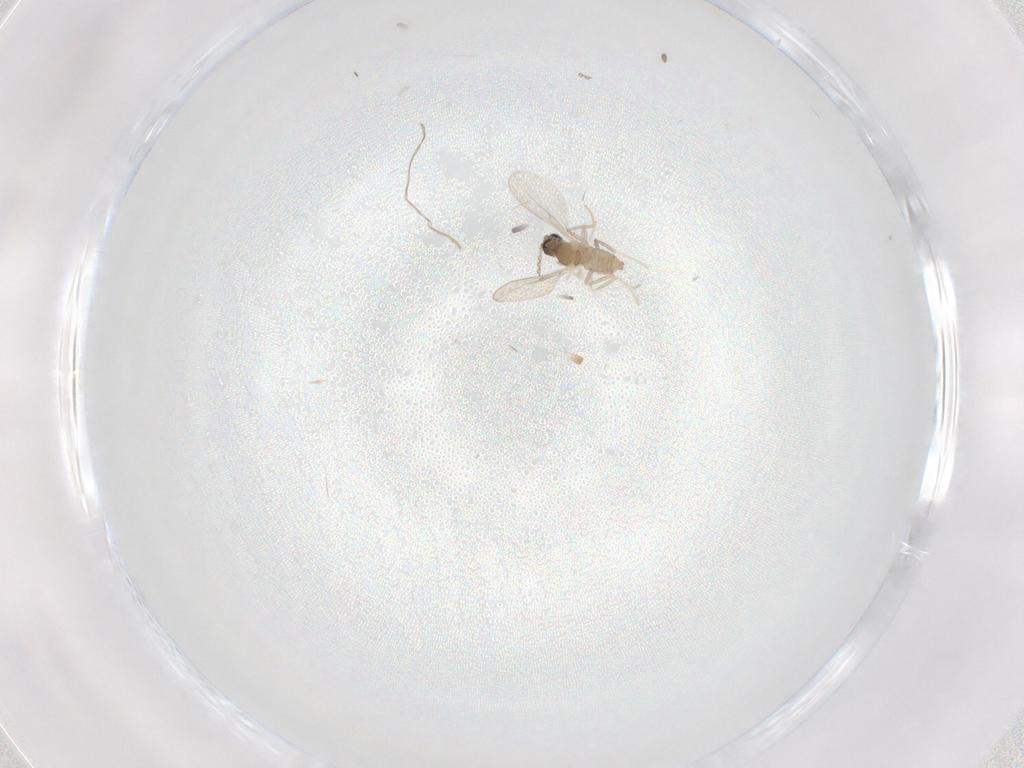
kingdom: Animalia
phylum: Arthropoda
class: Insecta
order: Diptera
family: Cecidomyiidae
